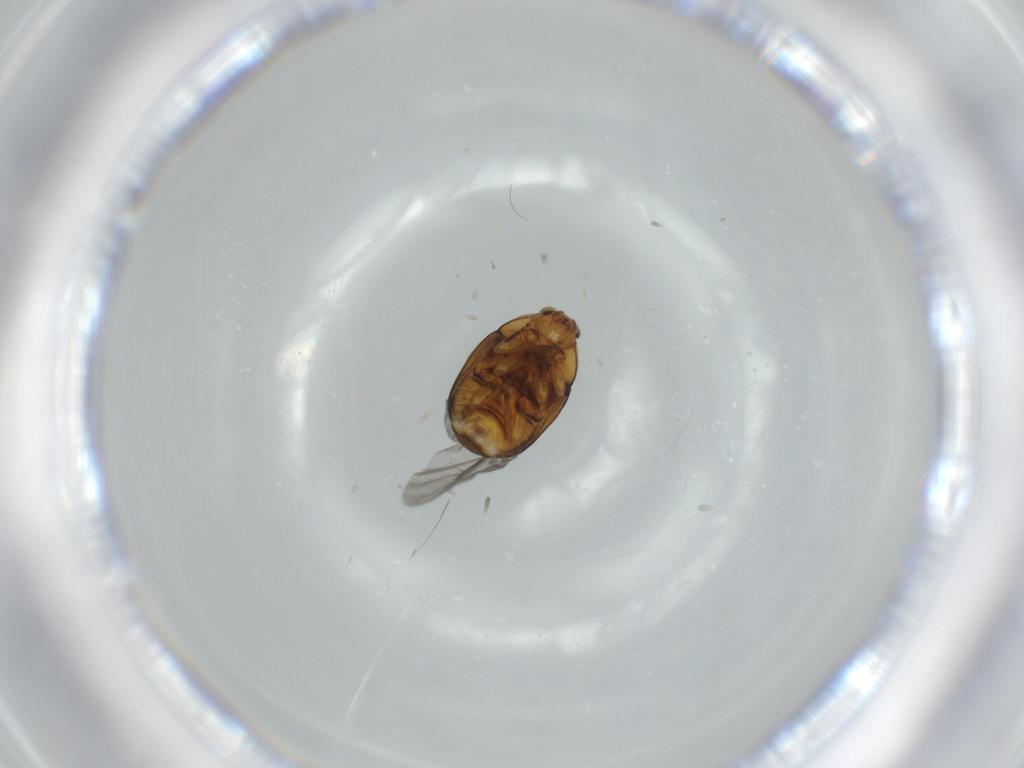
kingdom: Animalia
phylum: Arthropoda
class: Insecta
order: Coleoptera
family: Chrysomelidae
